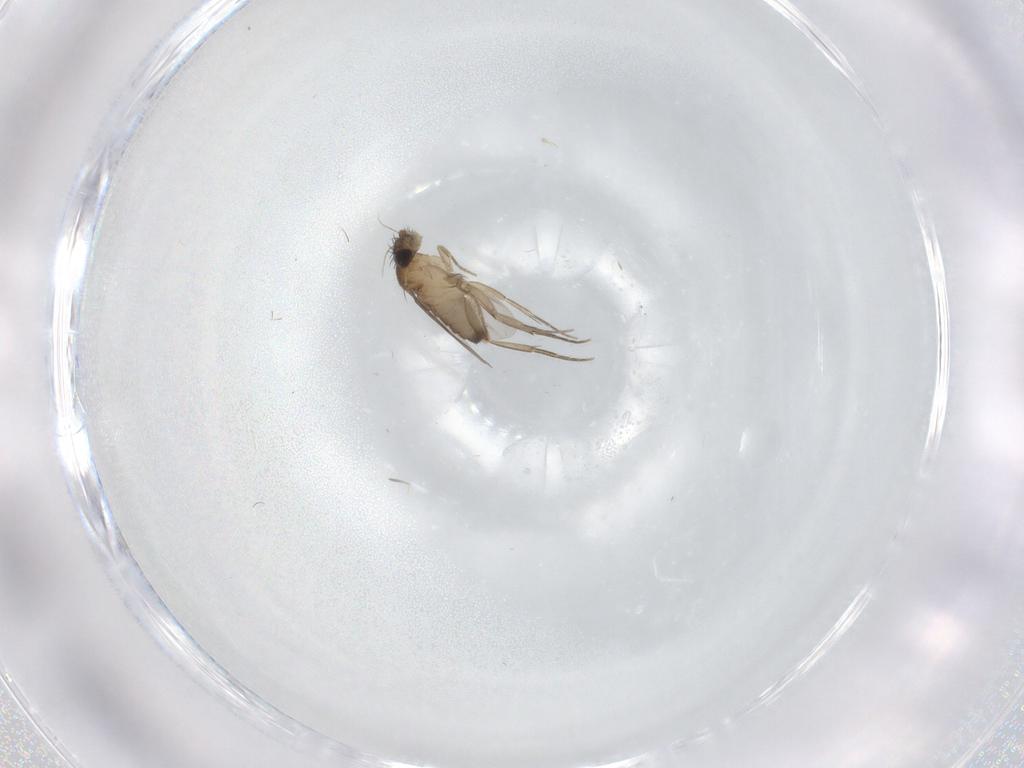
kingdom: Animalia
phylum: Arthropoda
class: Insecta
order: Diptera
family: Phoridae
